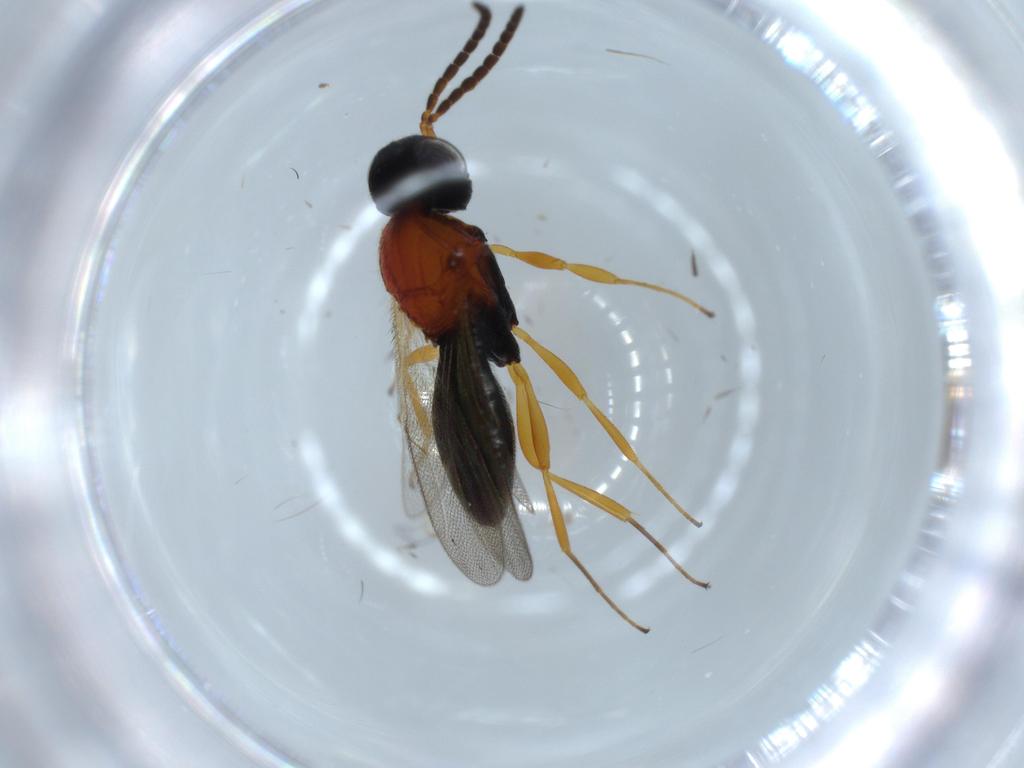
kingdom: Animalia
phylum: Arthropoda
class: Insecta
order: Hymenoptera
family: Scelionidae
